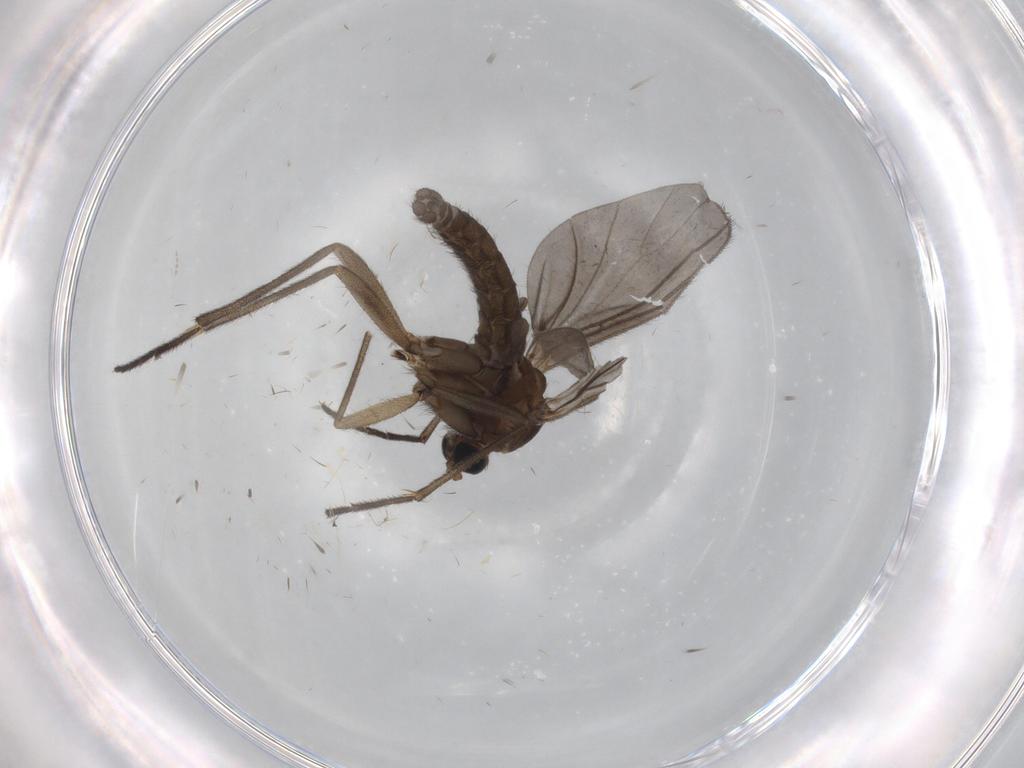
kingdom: Animalia
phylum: Arthropoda
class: Insecta
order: Diptera
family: Sciaridae
